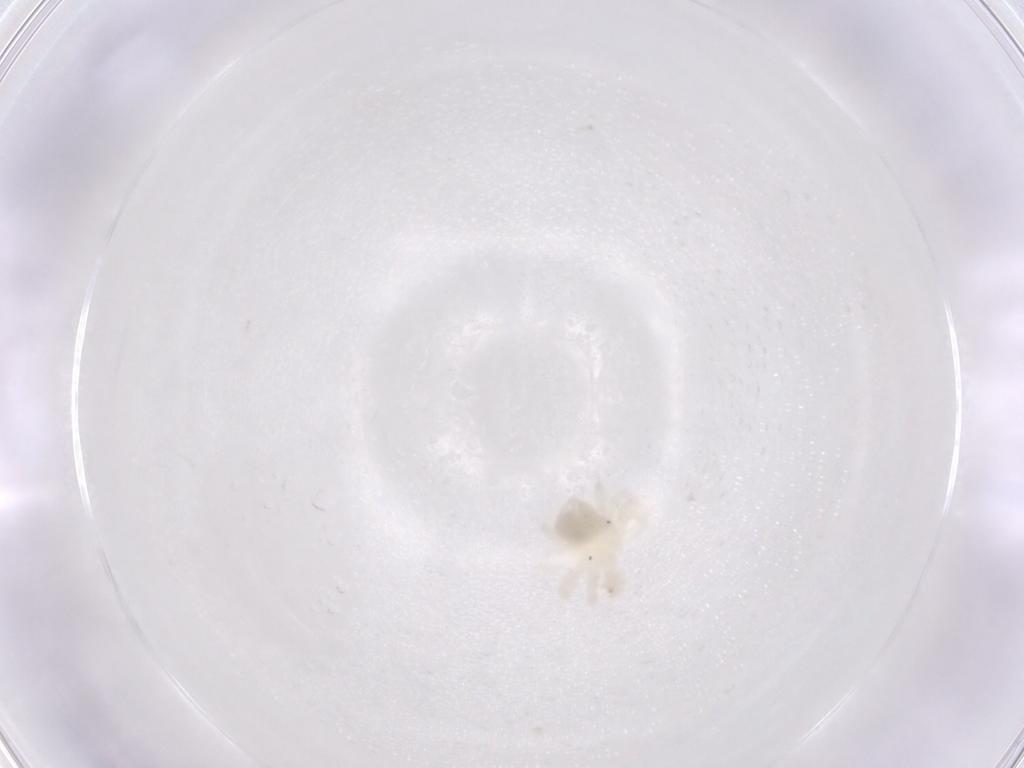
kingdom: Animalia
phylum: Arthropoda
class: Arachnida
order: Trombidiformes
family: Anystidae
